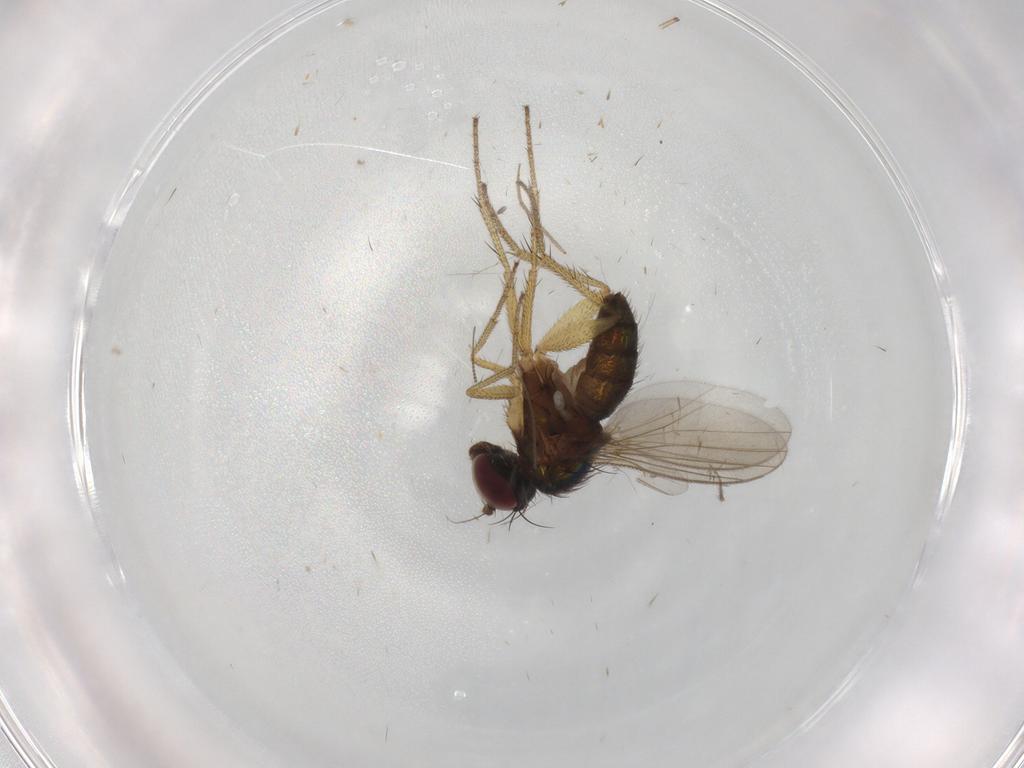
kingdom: Animalia
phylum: Arthropoda
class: Insecta
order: Diptera
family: Chironomidae
